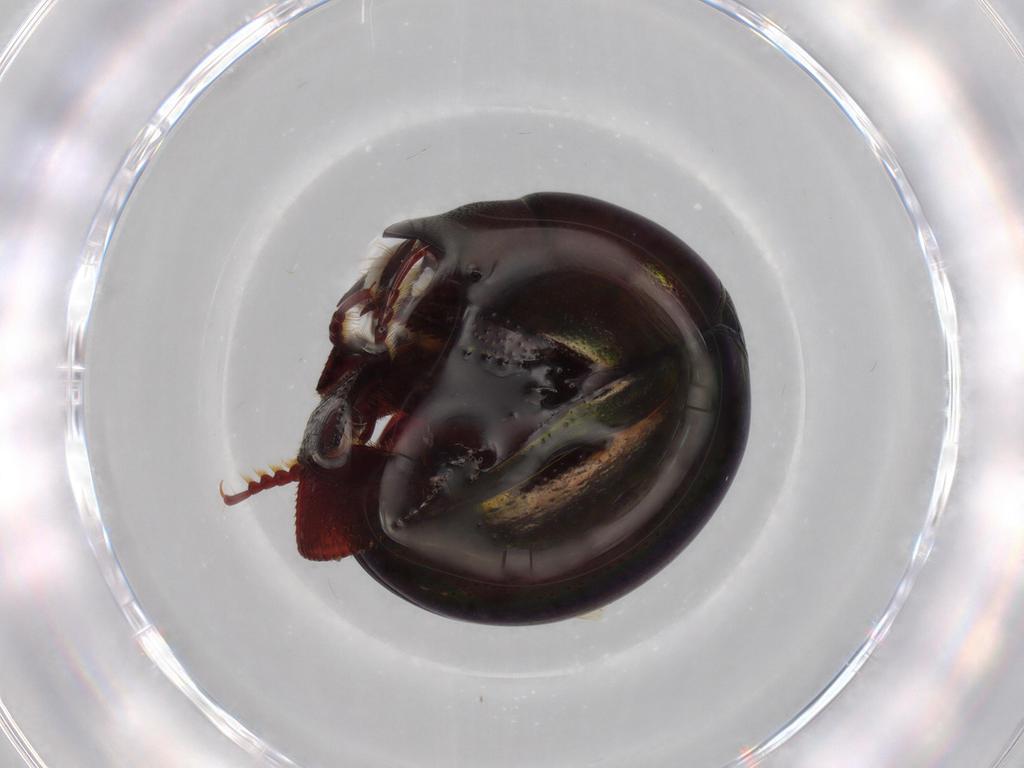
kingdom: Animalia
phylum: Arthropoda
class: Insecta
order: Coleoptera
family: Hybosoridae
